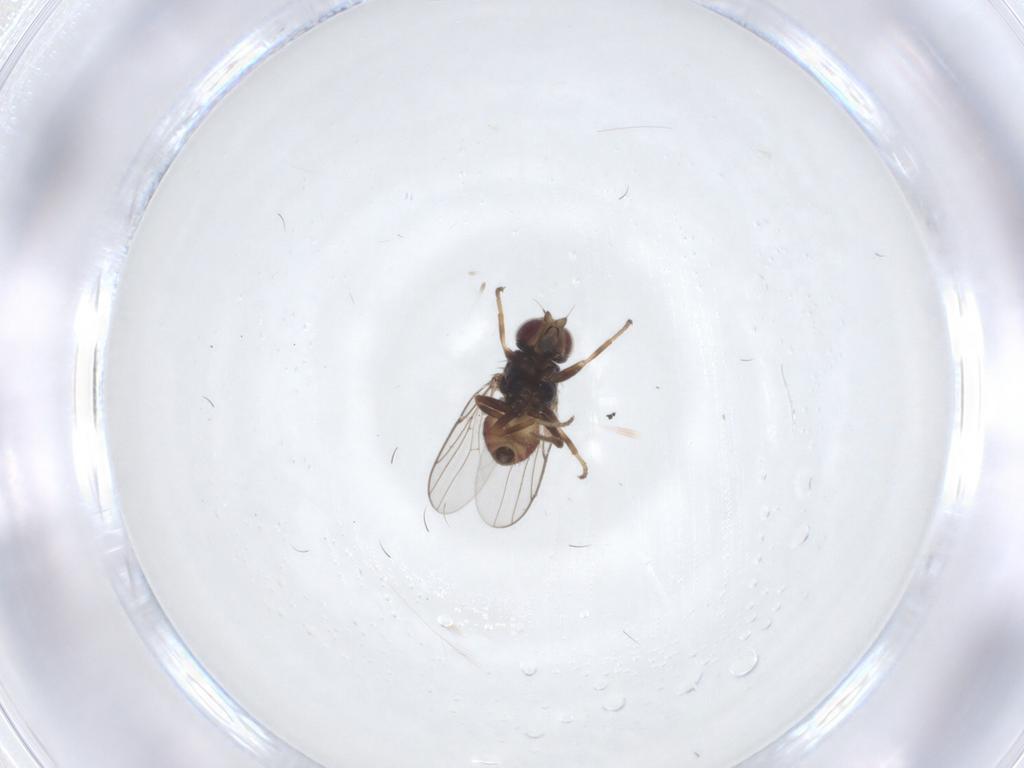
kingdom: Animalia
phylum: Arthropoda
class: Insecta
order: Diptera
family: Chloropidae
